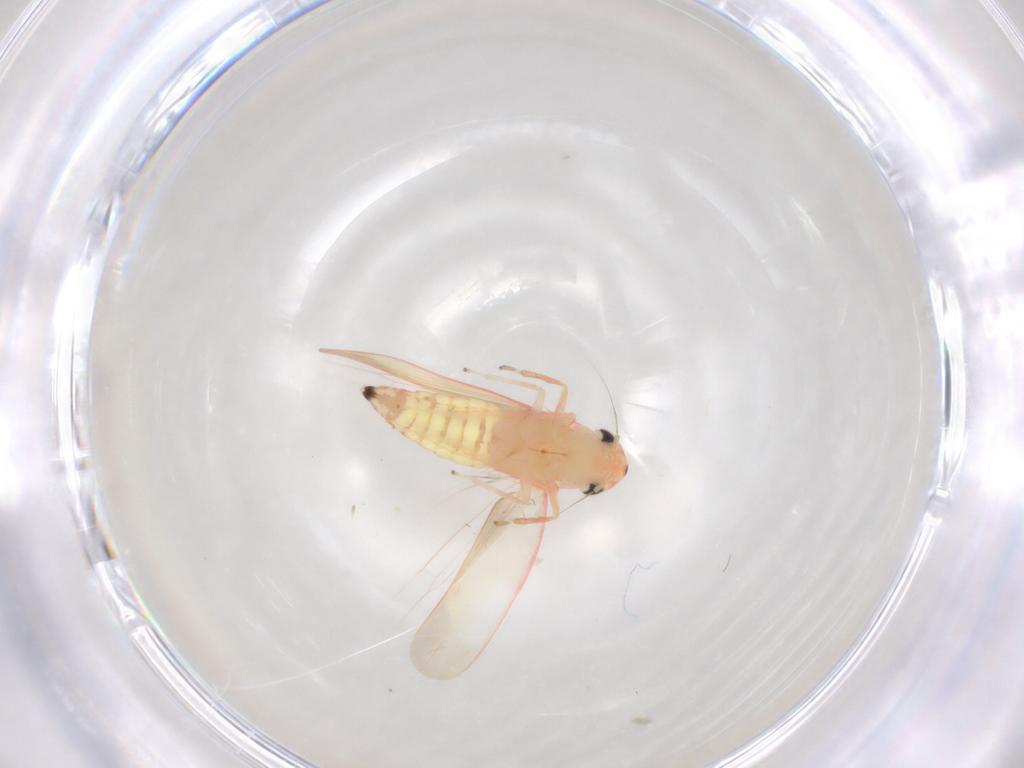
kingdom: Animalia
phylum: Arthropoda
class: Insecta
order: Hemiptera
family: Cicadellidae
